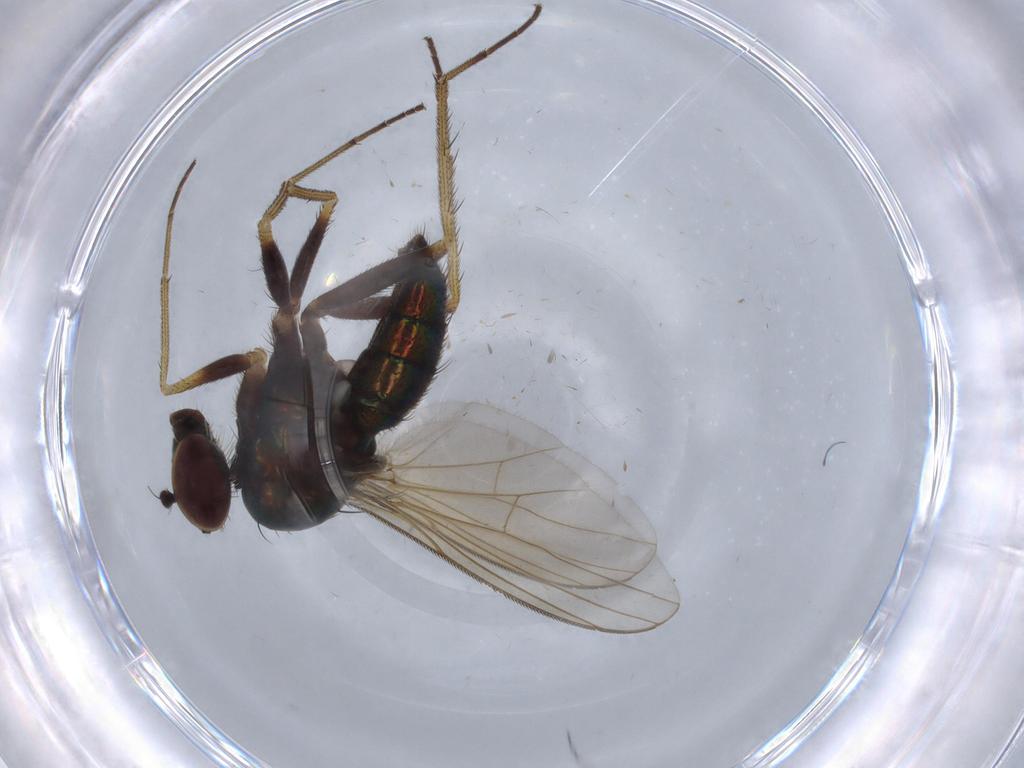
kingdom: Animalia
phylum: Arthropoda
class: Insecta
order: Diptera
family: Dolichopodidae
